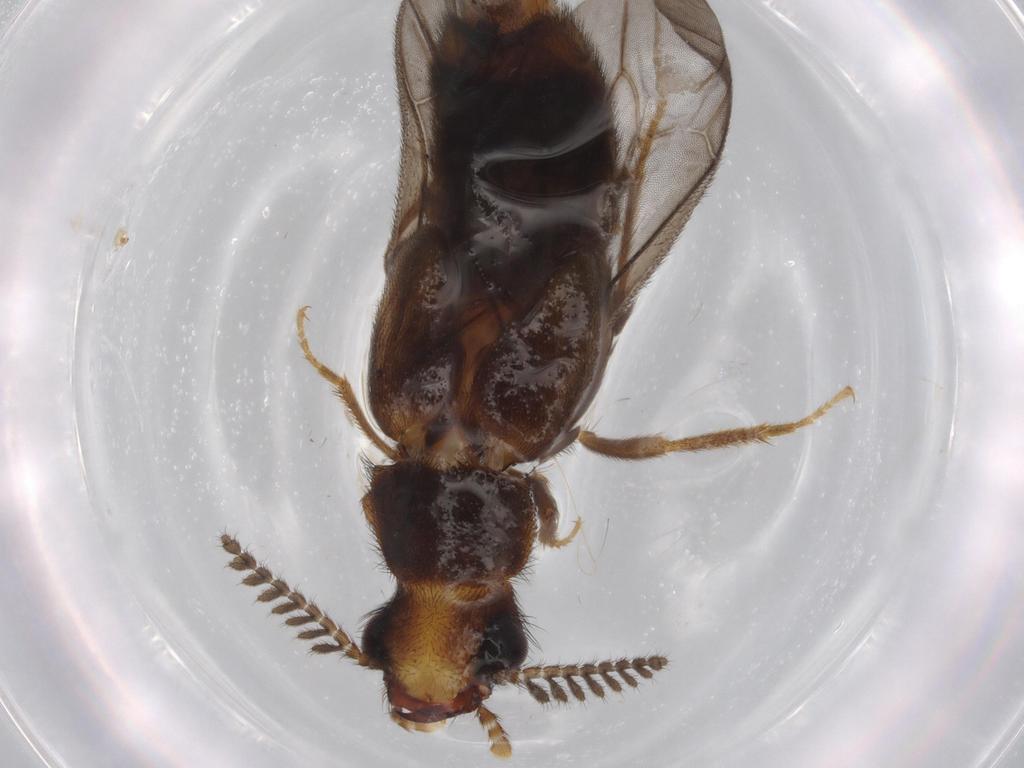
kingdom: Animalia
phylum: Arthropoda
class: Insecta
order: Coleoptera
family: Phengodidae
